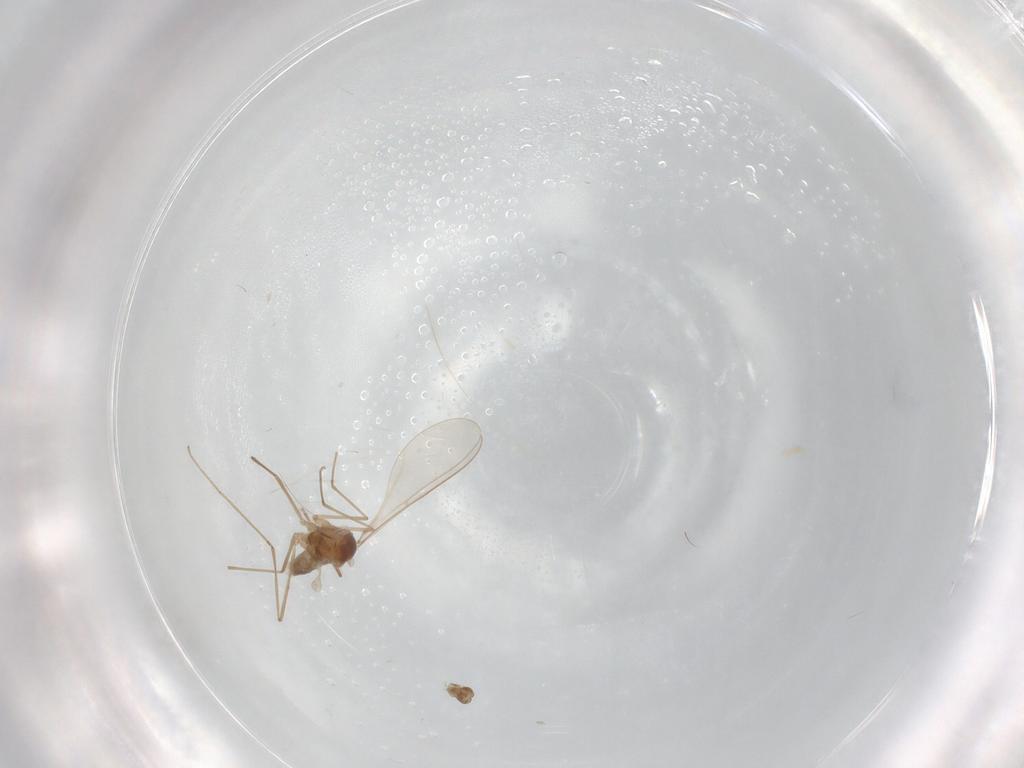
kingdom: Animalia
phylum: Arthropoda
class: Insecta
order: Diptera
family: Cecidomyiidae
